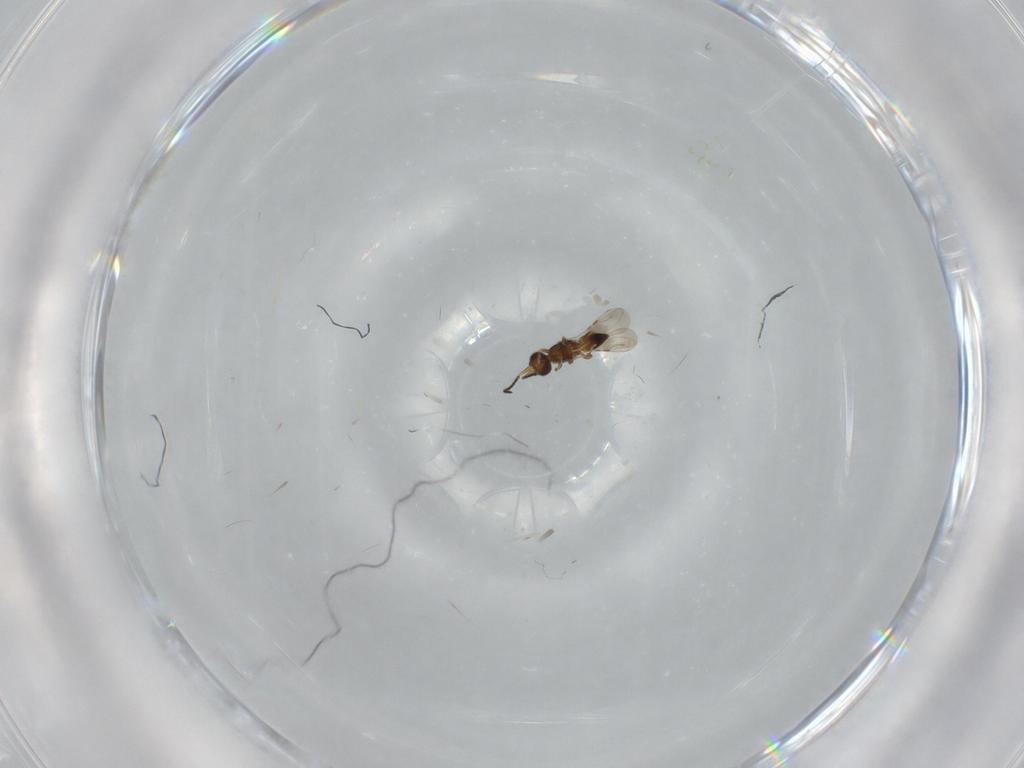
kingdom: Animalia
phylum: Arthropoda
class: Insecta
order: Hymenoptera
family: Ceraphronidae
